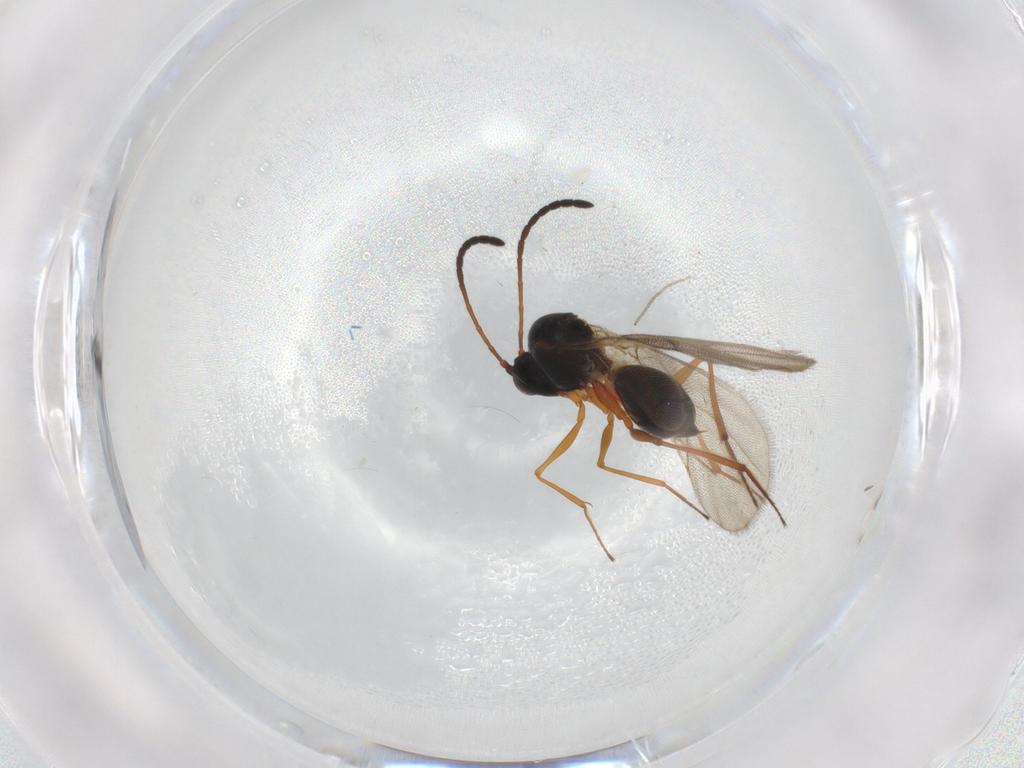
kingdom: Animalia
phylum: Arthropoda
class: Insecta
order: Hymenoptera
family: Figitidae
